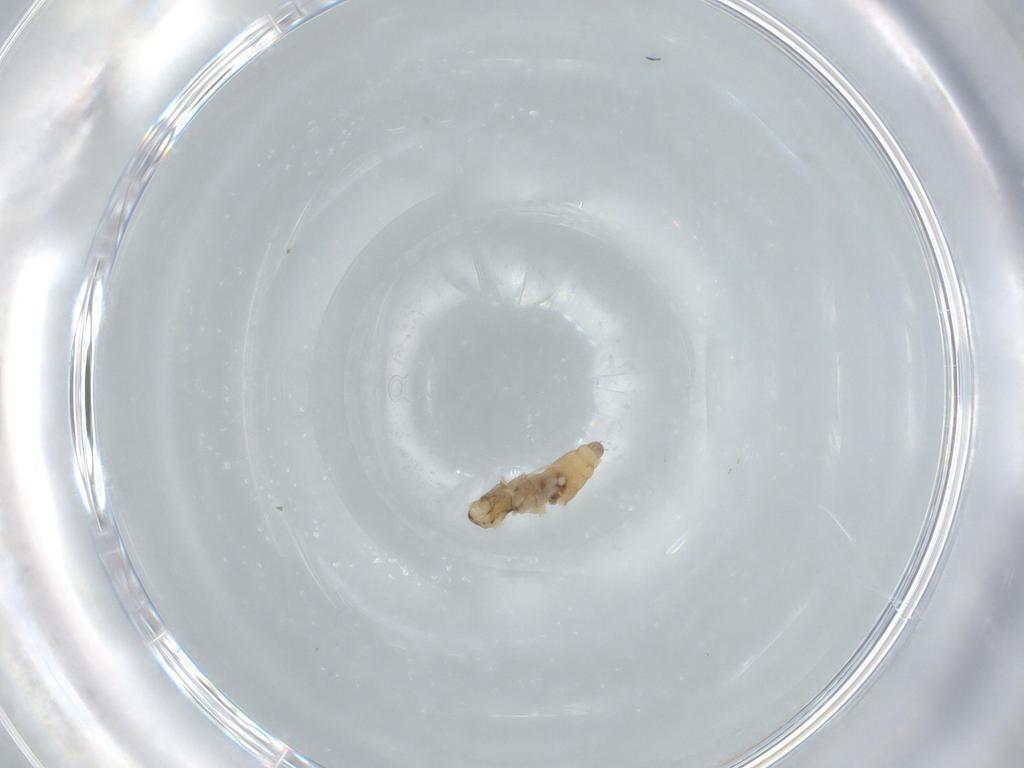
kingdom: Animalia
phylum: Arthropoda
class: Insecta
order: Diptera
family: Cecidomyiidae
